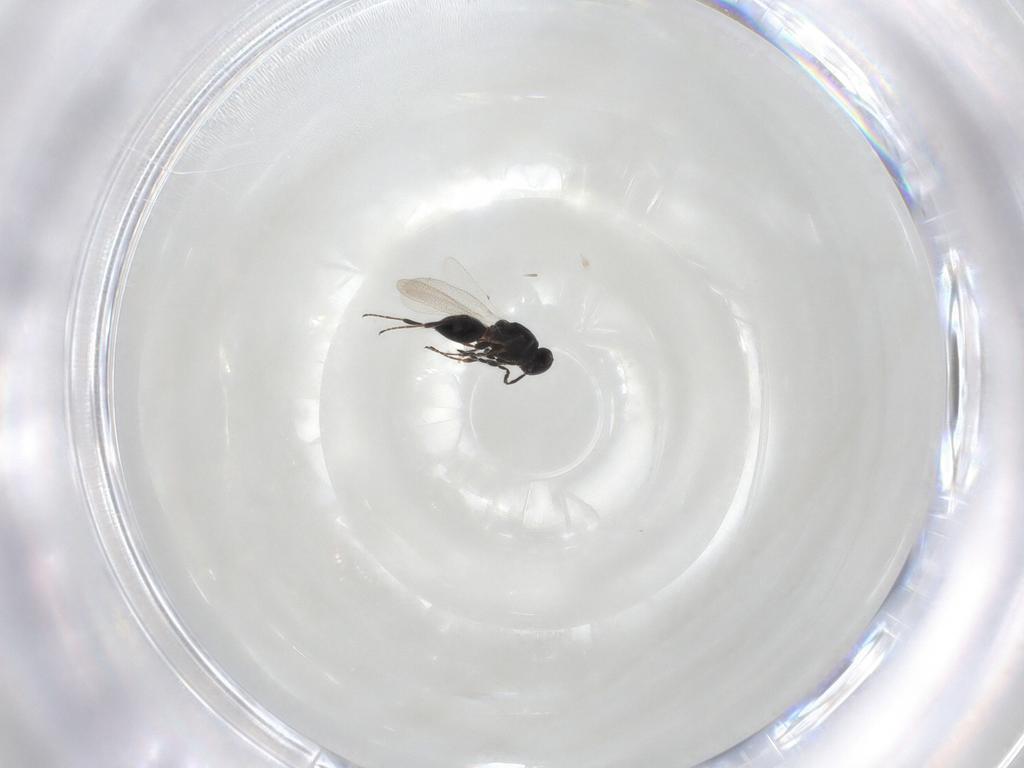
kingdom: Animalia
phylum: Arthropoda
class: Insecta
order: Hymenoptera
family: Platygastridae
